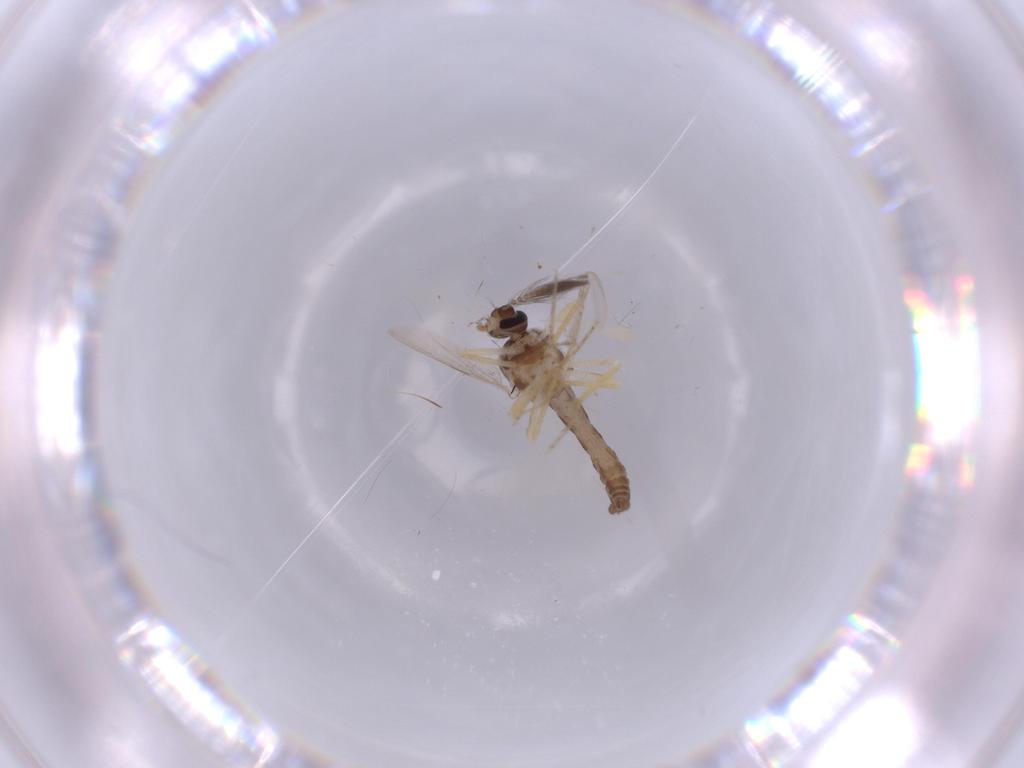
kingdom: Animalia
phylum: Arthropoda
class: Insecta
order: Diptera
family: Ceratopogonidae
